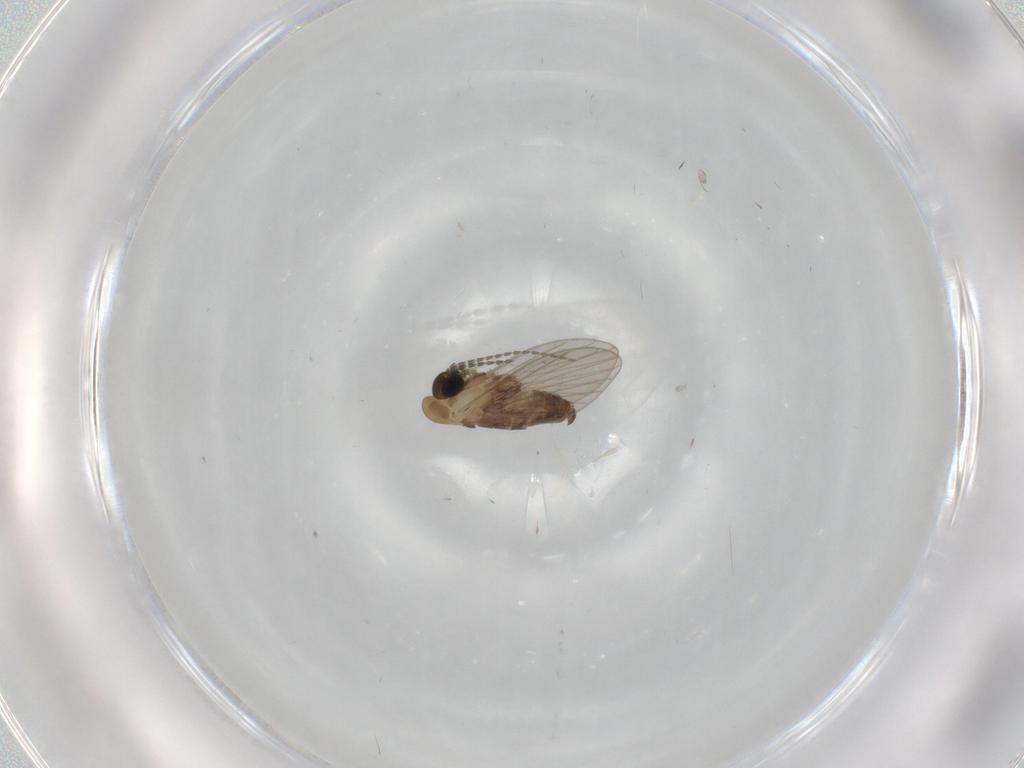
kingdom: Animalia
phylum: Arthropoda
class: Insecta
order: Diptera
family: Psychodidae
